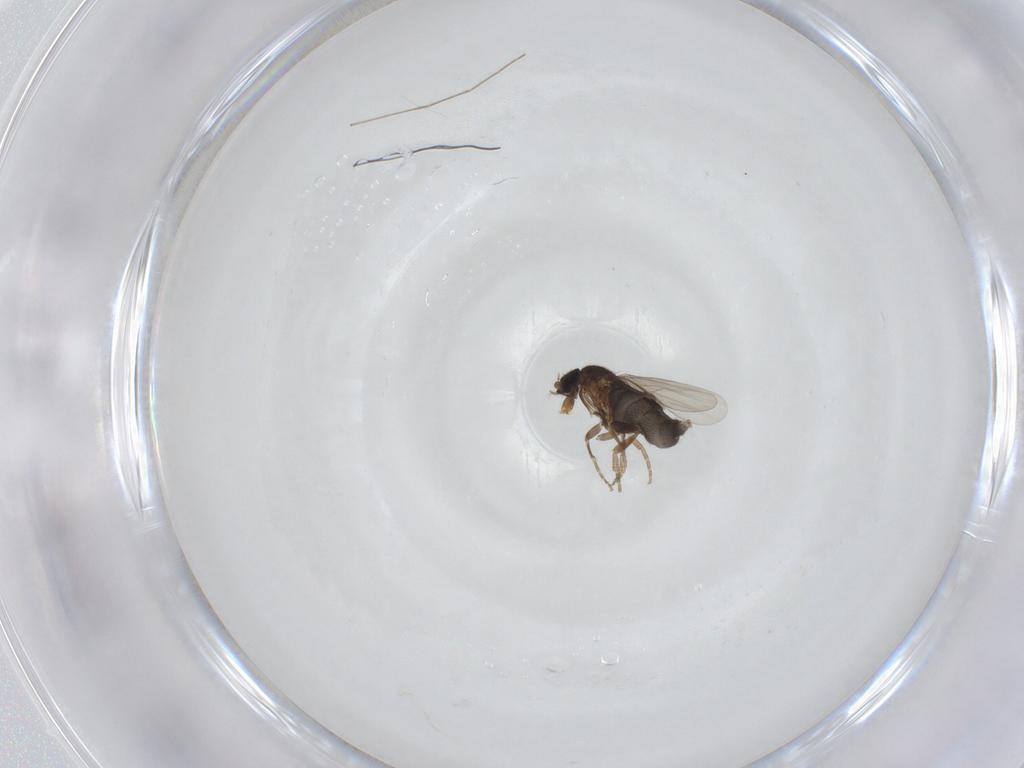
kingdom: Animalia
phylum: Arthropoda
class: Insecta
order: Diptera
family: Phoridae
